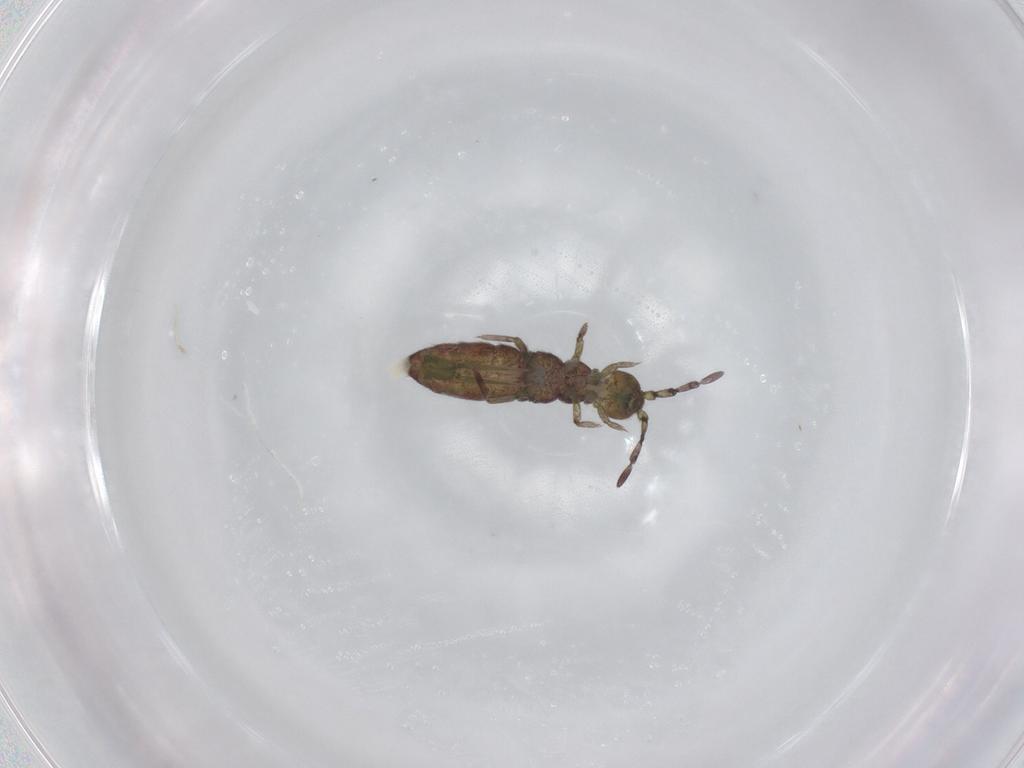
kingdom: Animalia
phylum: Arthropoda
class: Collembola
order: Entomobryomorpha
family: Isotomidae
